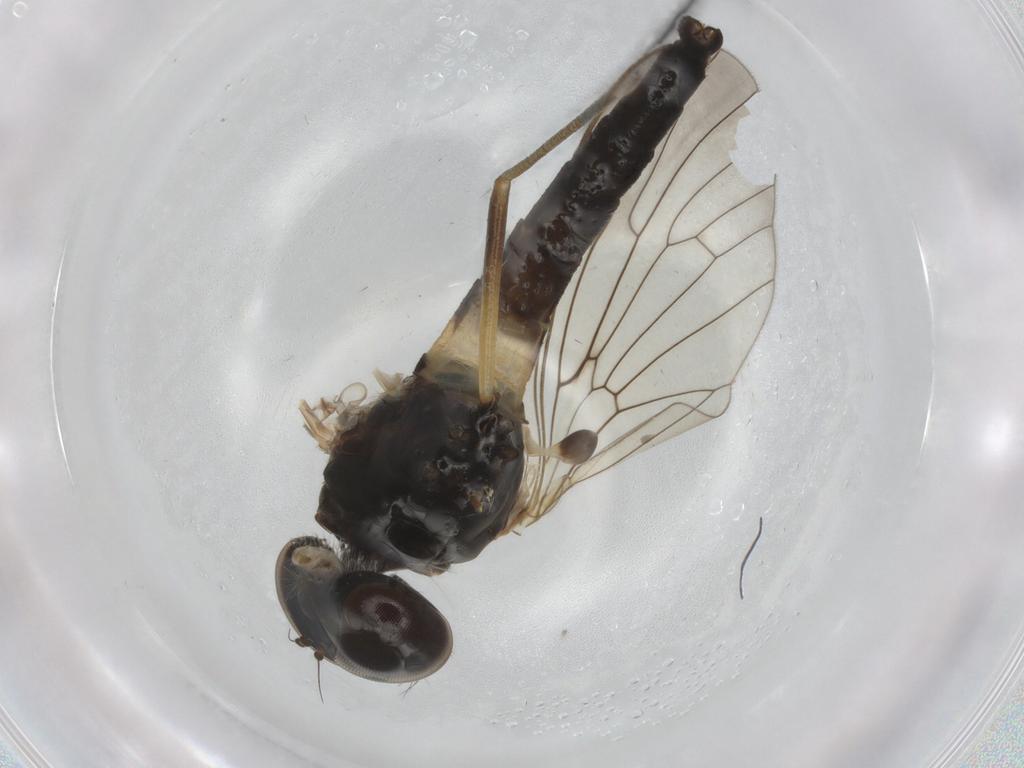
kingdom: Animalia
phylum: Arthropoda
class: Insecta
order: Diptera
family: Rhagionidae
